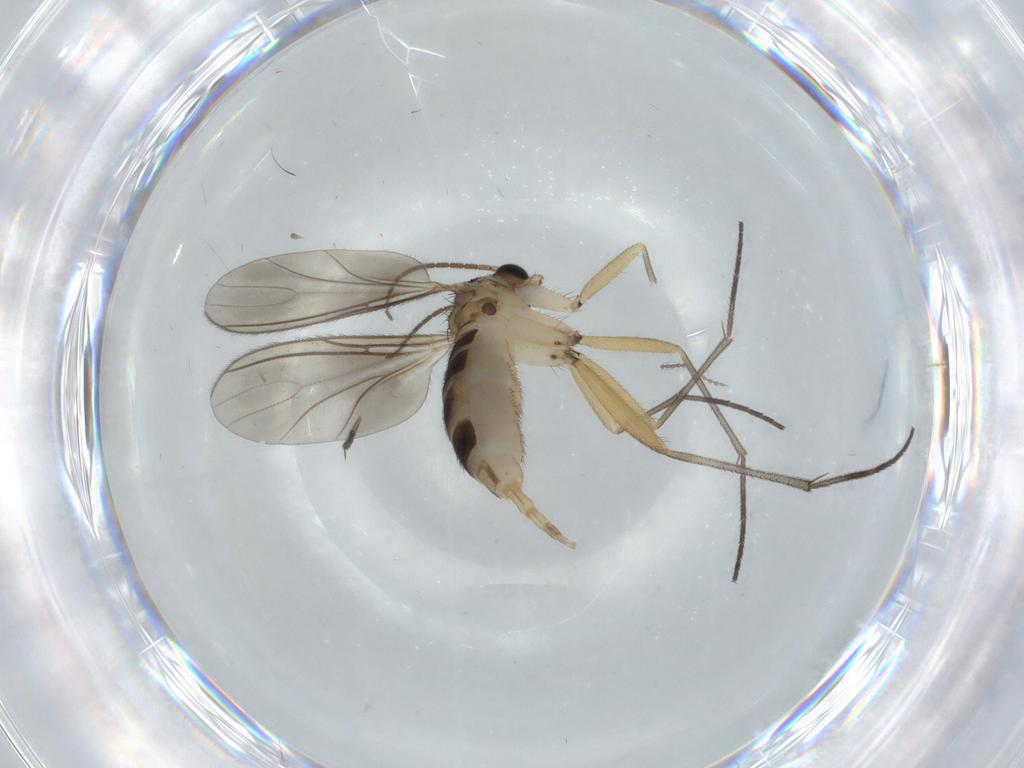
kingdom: Animalia
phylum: Arthropoda
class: Insecta
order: Diptera
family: Sciaridae
